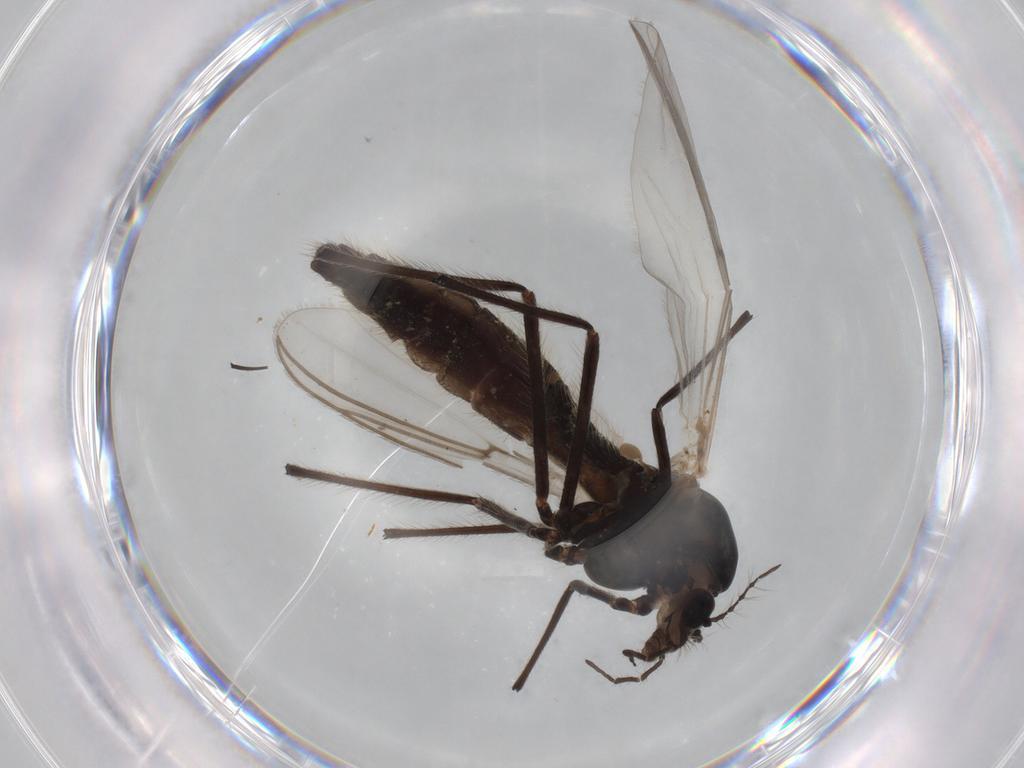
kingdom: Animalia
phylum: Arthropoda
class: Insecta
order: Diptera
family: Chironomidae
